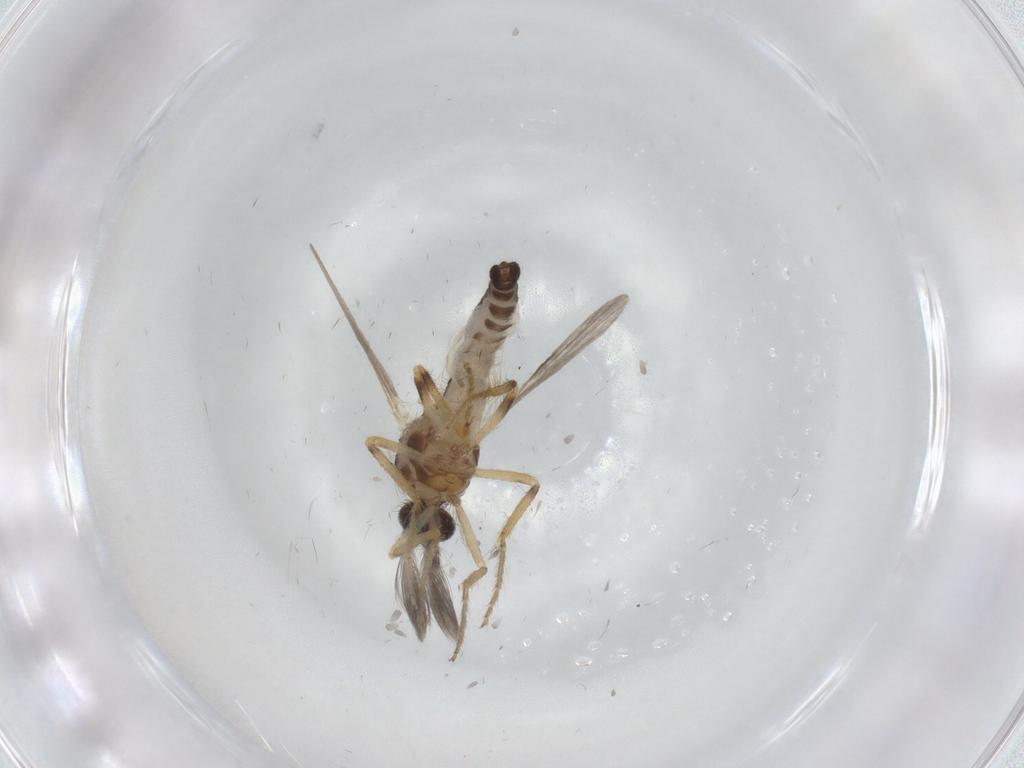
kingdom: Animalia
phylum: Arthropoda
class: Insecta
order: Diptera
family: Ceratopogonidae
